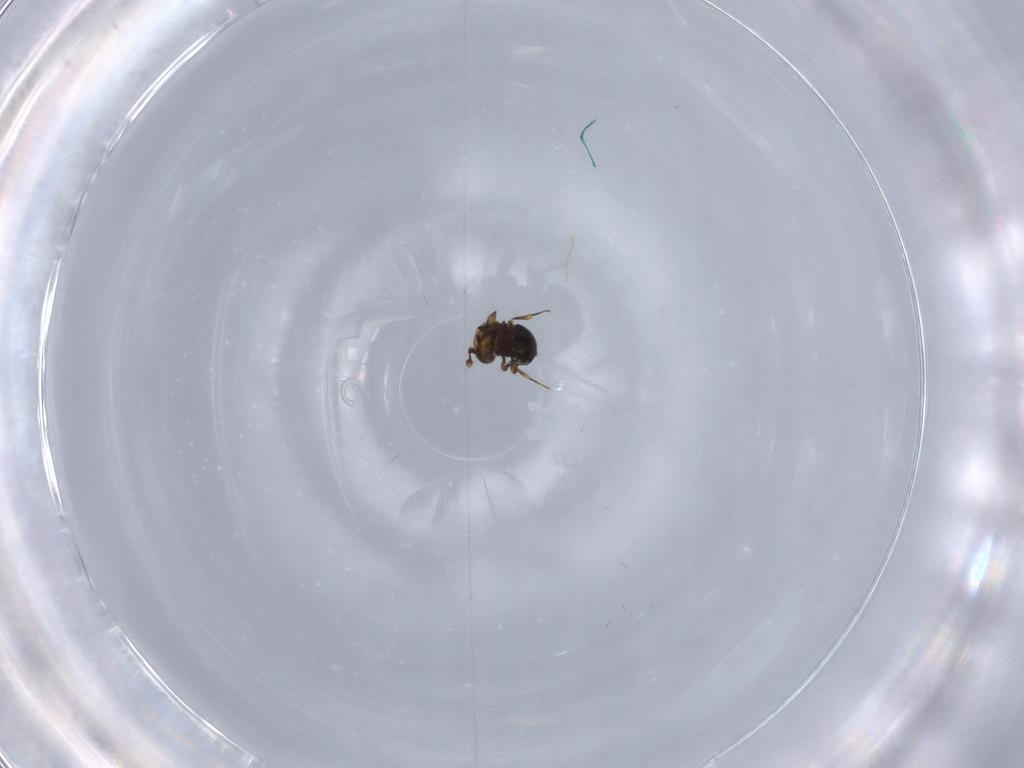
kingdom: Animalia
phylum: Arthropoda
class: Insecta
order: Hymenoptera
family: Scelionidae
